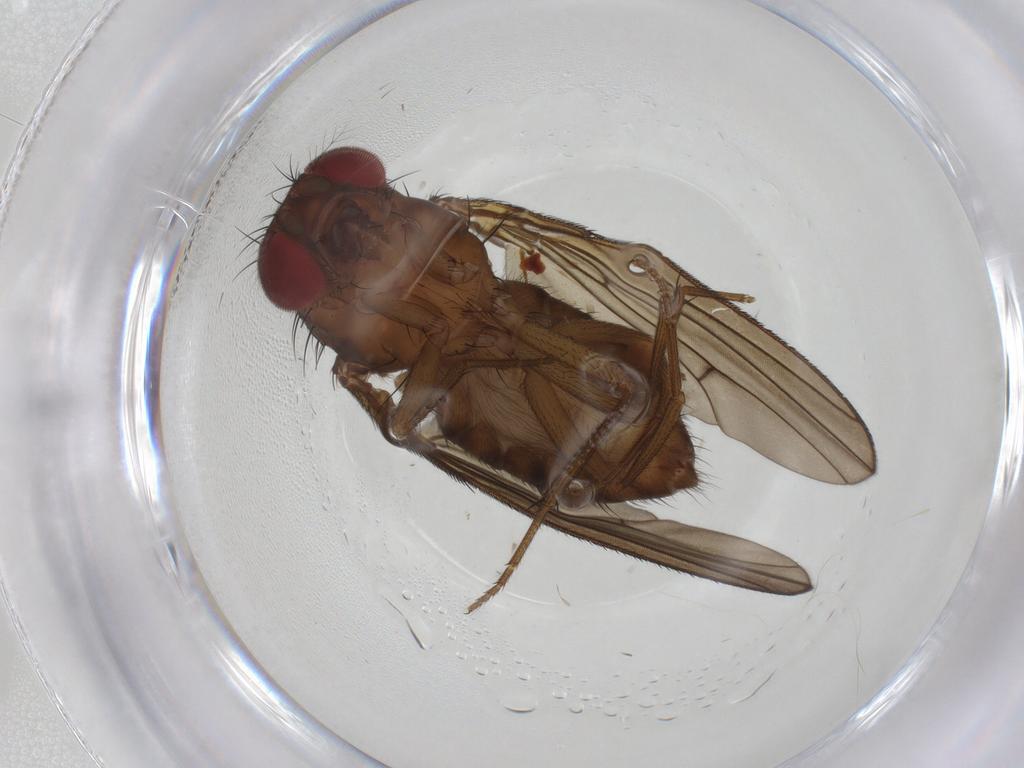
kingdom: Animalia
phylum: Arthropoda
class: Insecta
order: Diptera
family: Drosophilidae
